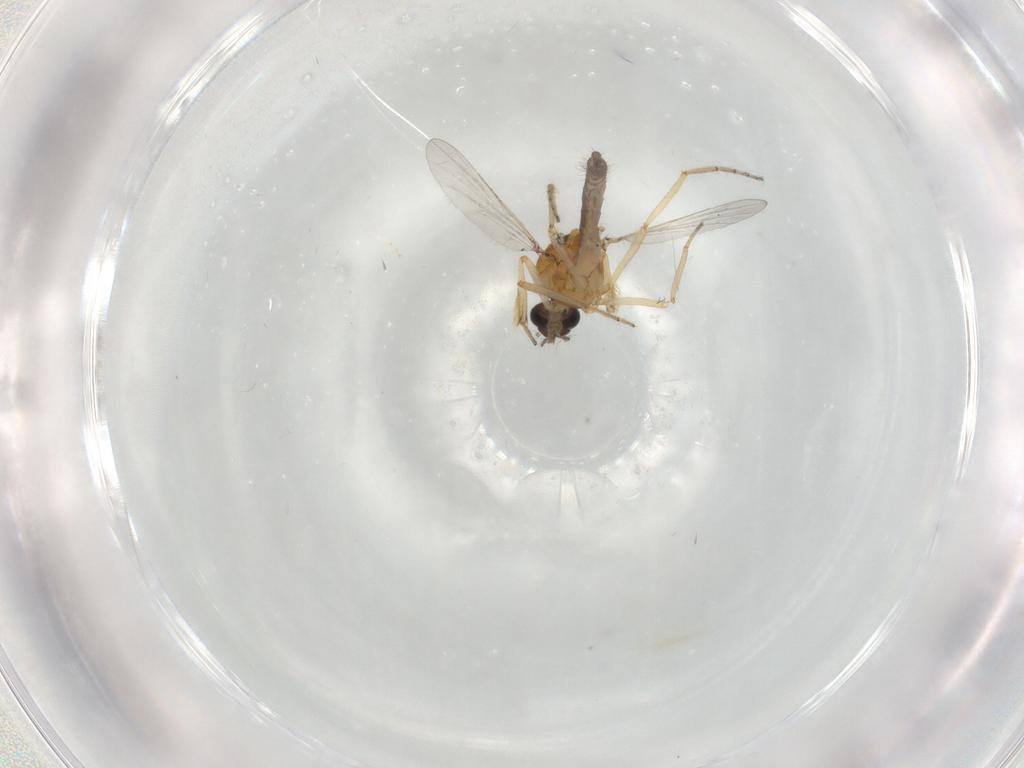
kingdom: Animalia
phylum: Arthropoda
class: Insecta
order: Diptera
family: Ceratopogonidae
